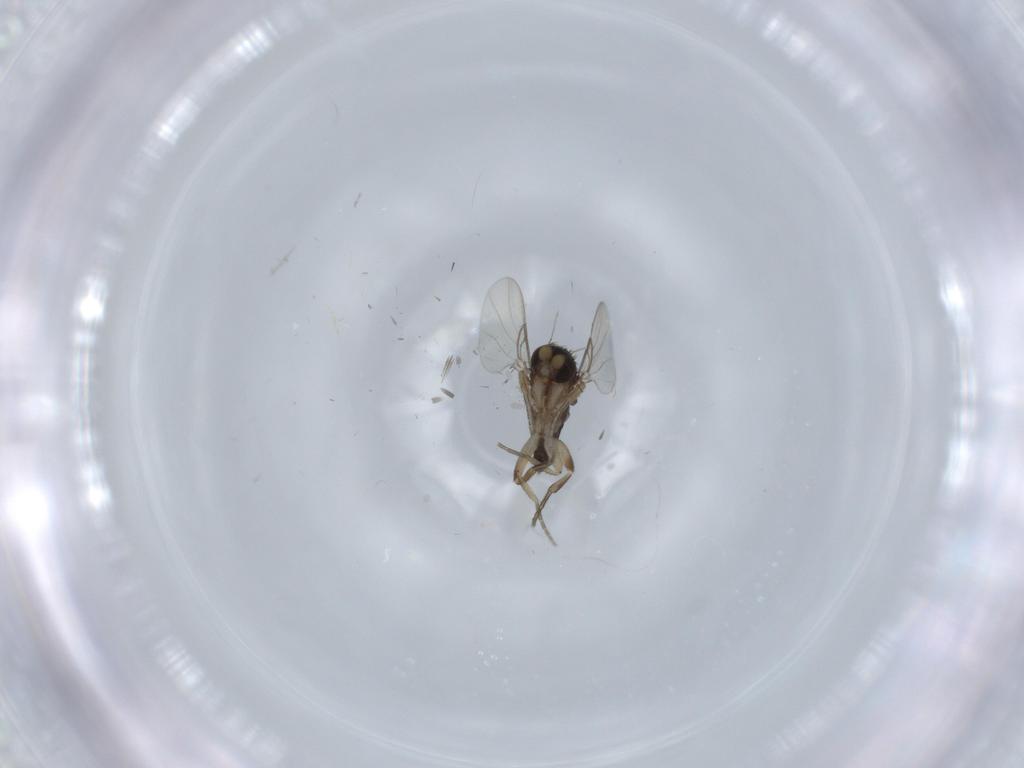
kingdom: Animalia
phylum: Arthropoda
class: Insecta
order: Diptera
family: Phoridae
